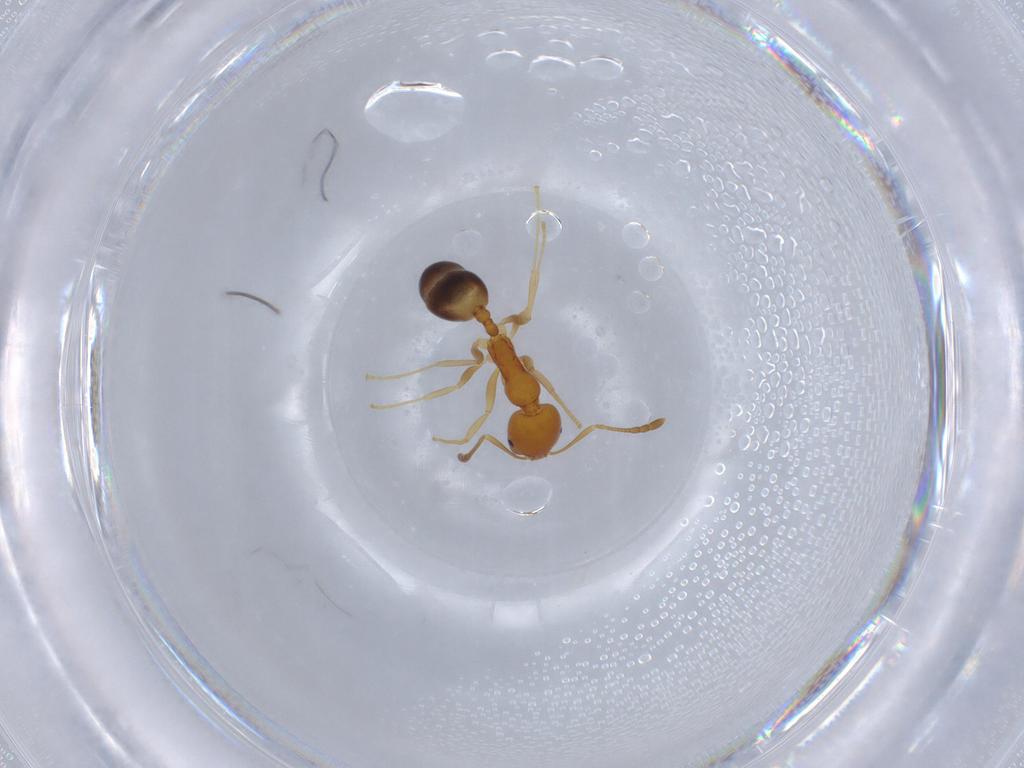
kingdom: Animalia
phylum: Arthropoda
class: Insecta
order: Hymenoptera
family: Formicidae
